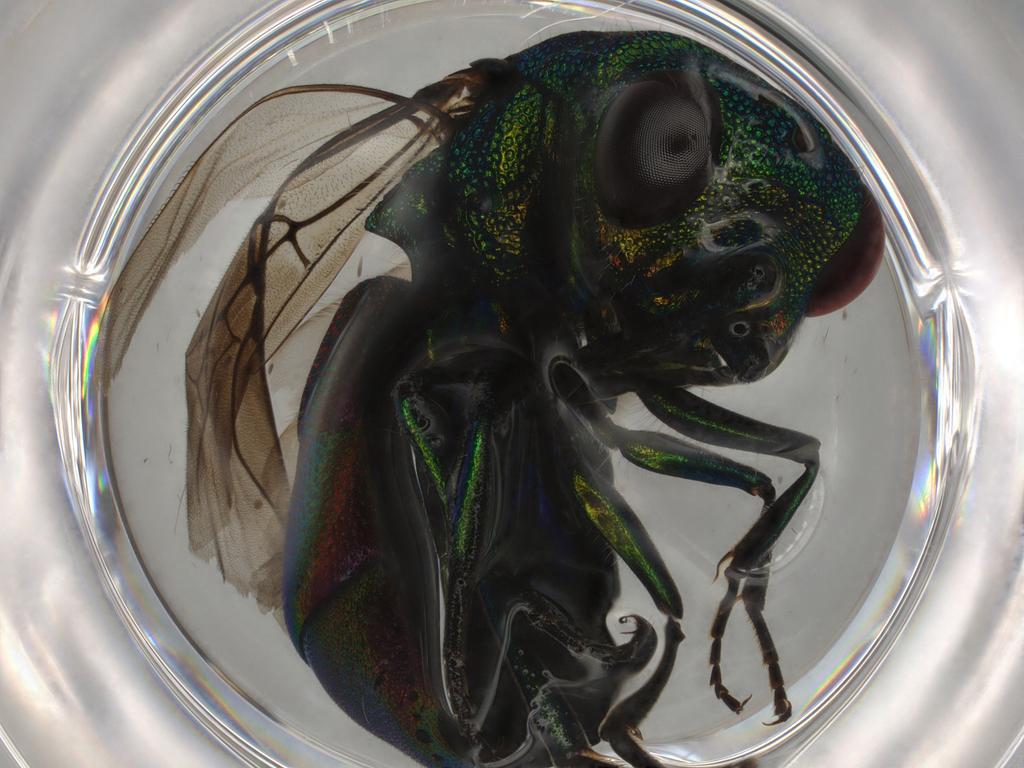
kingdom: Animalia
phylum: Arthropoda
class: Insecta
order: Hymenoptera
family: Chrysididae
